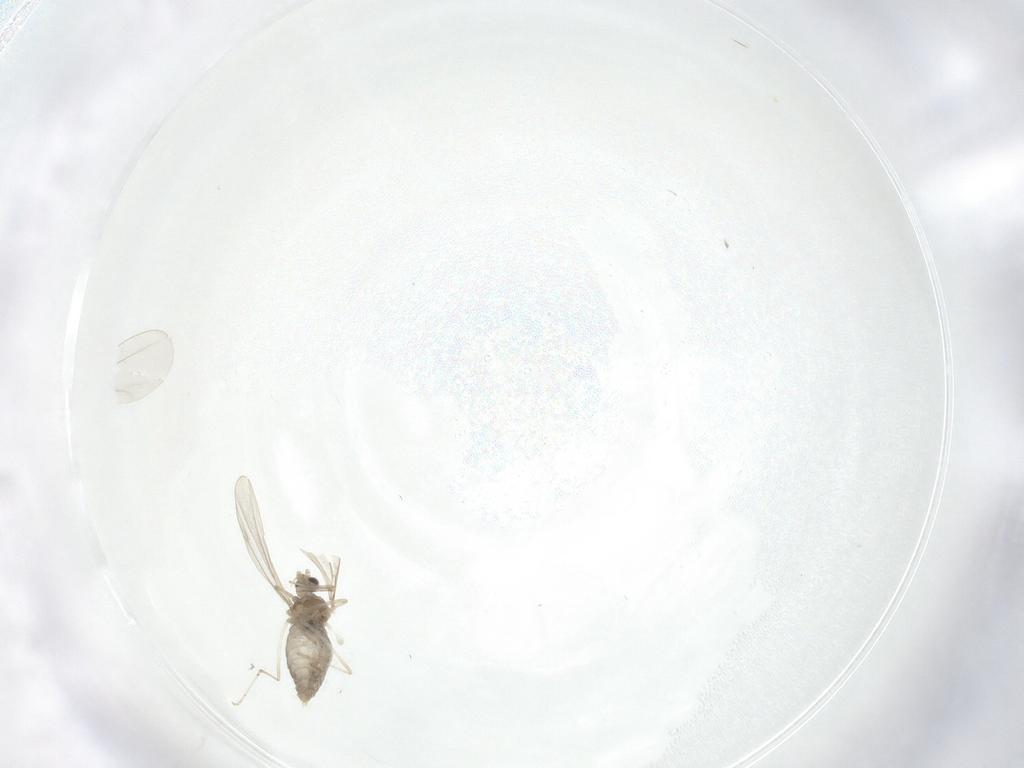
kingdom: Animalia
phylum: Arthropoda
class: Insecta
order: Diptera
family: Cecidomyiidae
